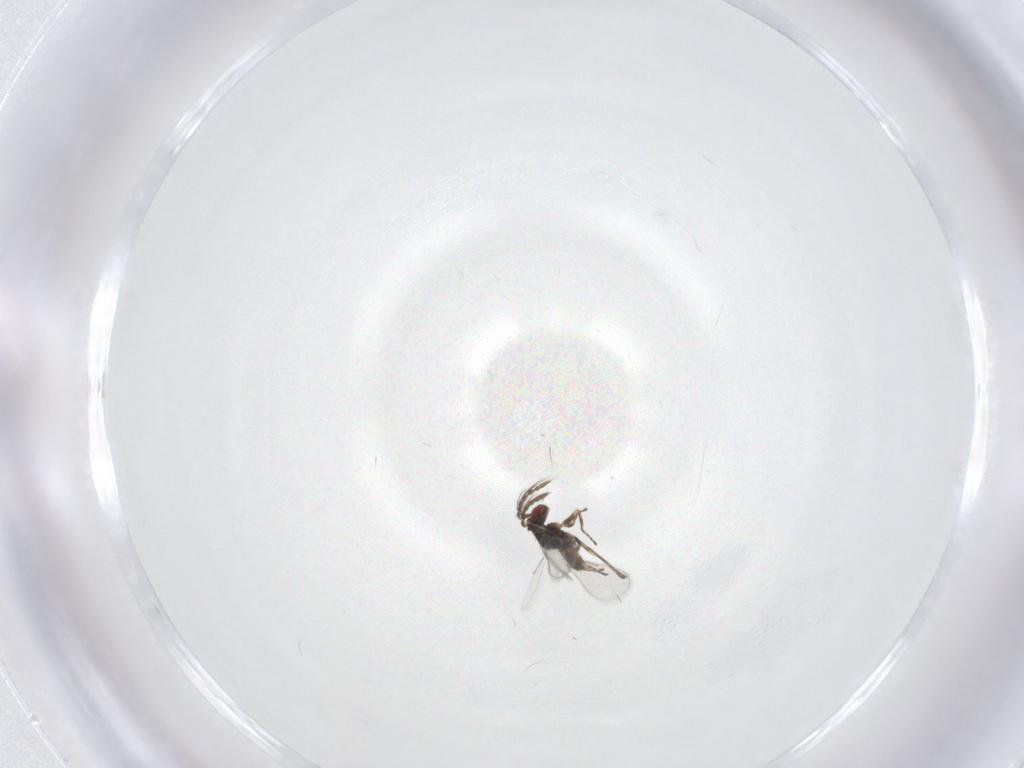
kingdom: Animalia
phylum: Arthropoda
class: Insecta
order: Hymenoptera
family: Eulophidae
